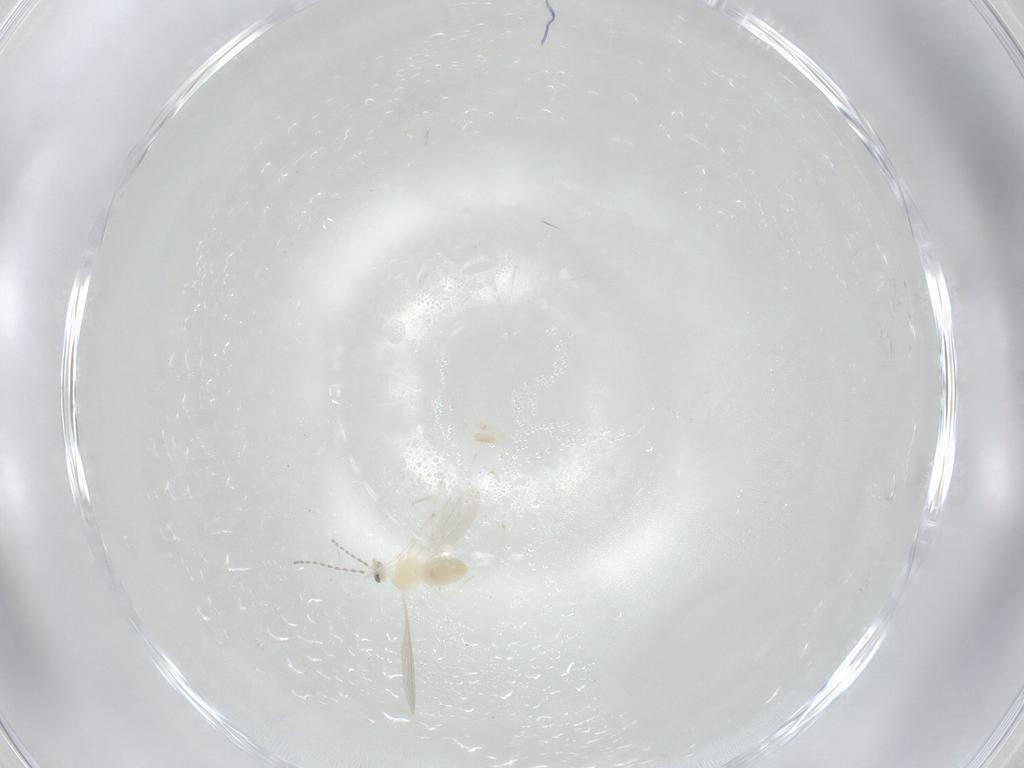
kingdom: Animalia
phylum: Arthropoda
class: Insecta
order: Diptera
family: Cecidomyiidae
